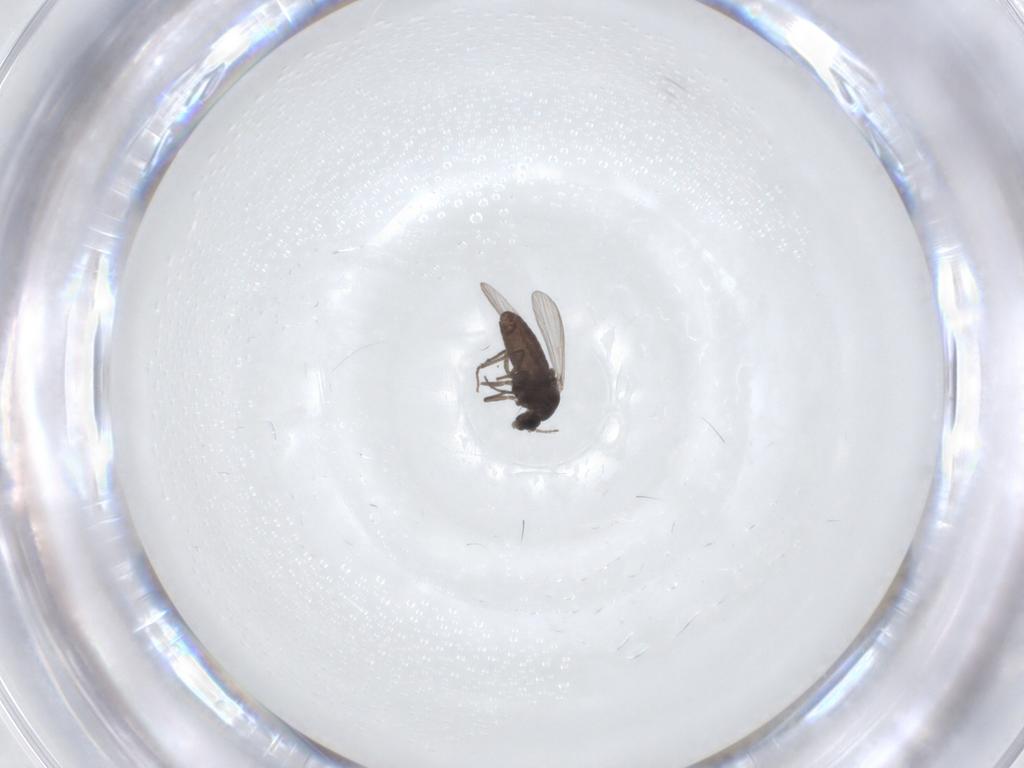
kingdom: Animalia
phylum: Arthropoda
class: Insecta
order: Diptera
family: Chironomidae
